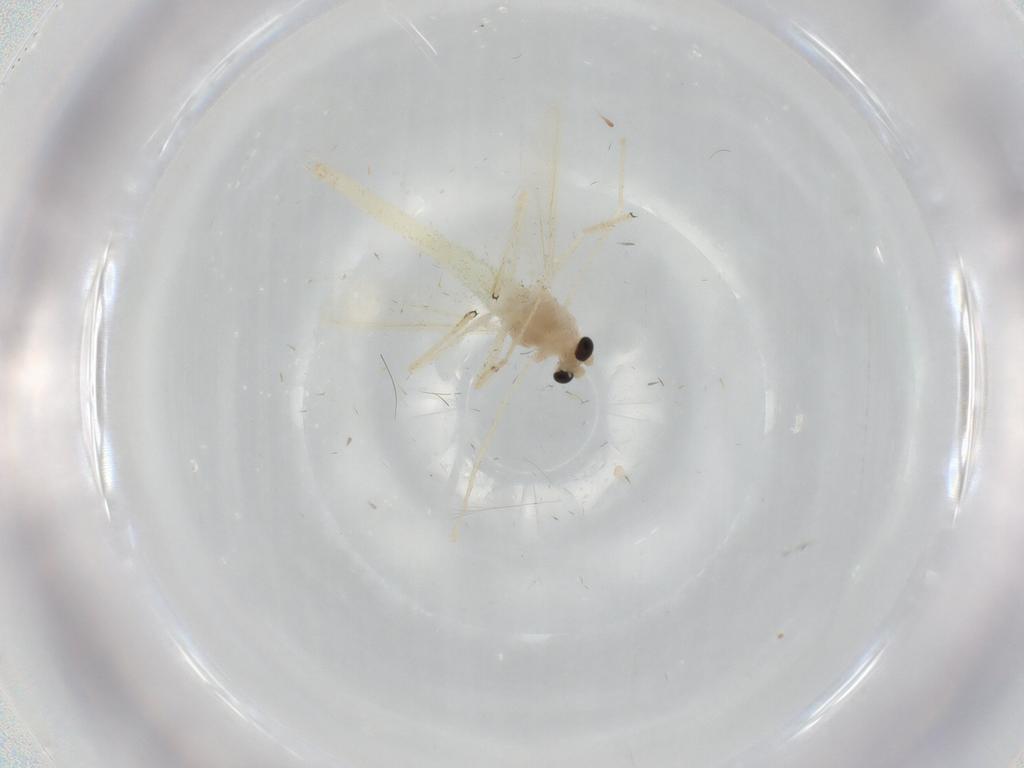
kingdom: Animalia
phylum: Arthropoda
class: Insecta
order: Diptera
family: Chironomidae
